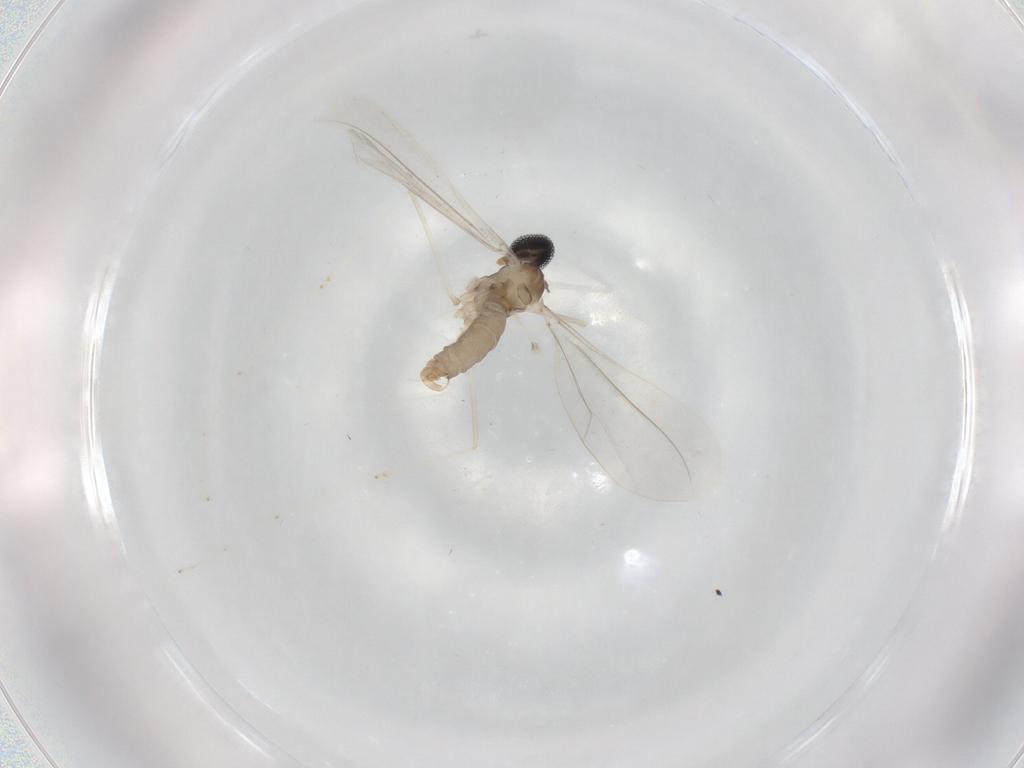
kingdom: Animalia
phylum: Arthropoda
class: Insecta
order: Diptera
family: Cecidomyiidae
